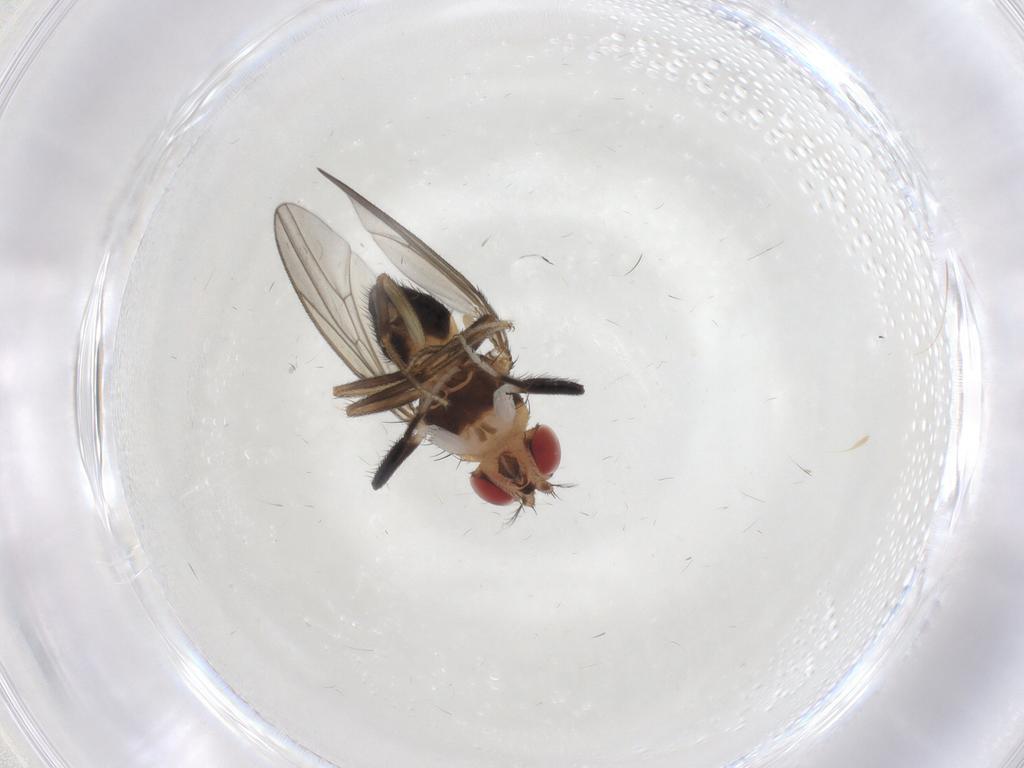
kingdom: Animalia
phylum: Arthropoda
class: Insecta
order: Diptera
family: Drosophilidae
